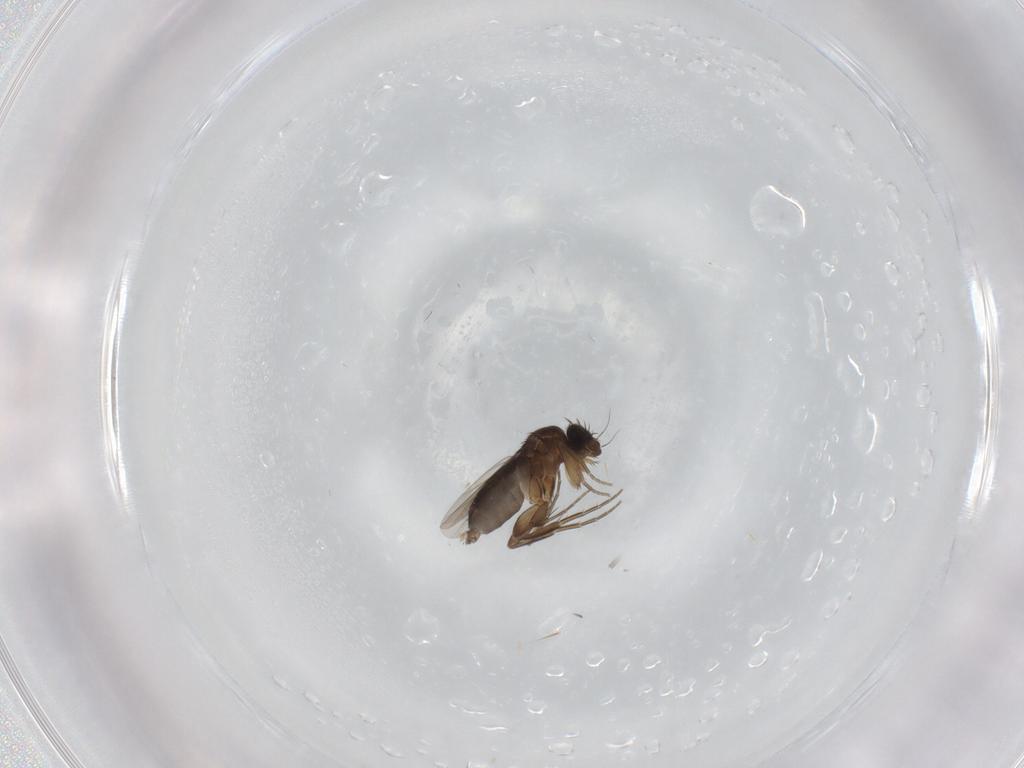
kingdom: Animalia
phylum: Arthropoda
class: Insecta
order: Diptera
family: Phoridae
